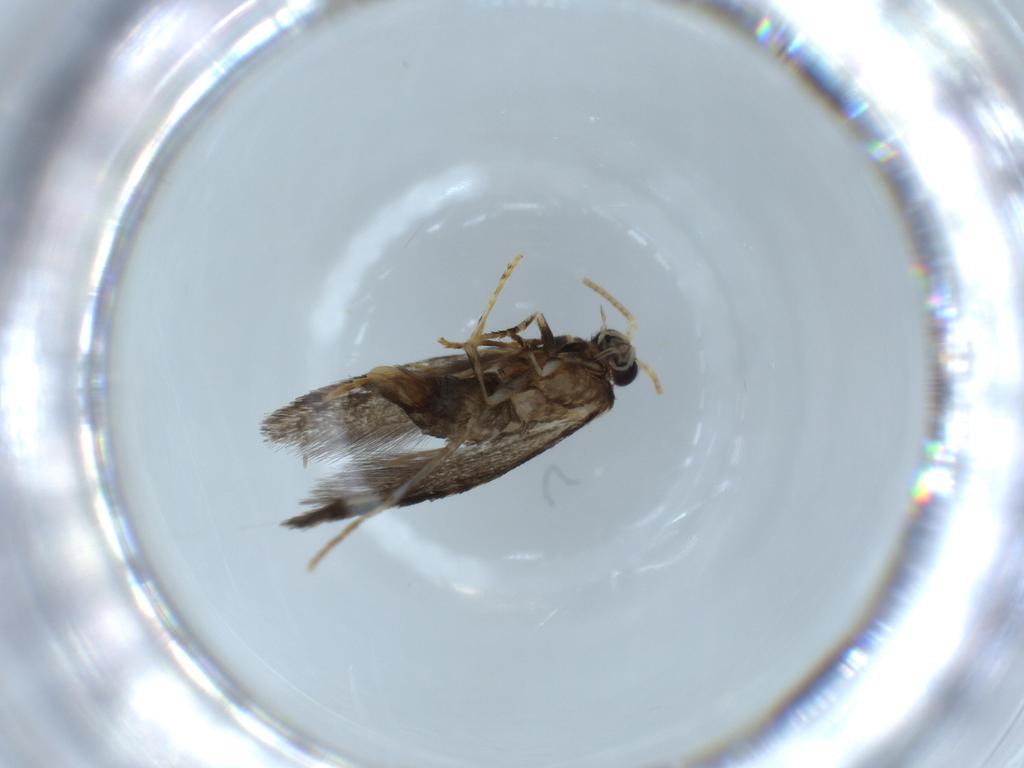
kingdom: Animalia
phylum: Arthropoda
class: Insecta
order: Lepidoptera
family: Tineidae
